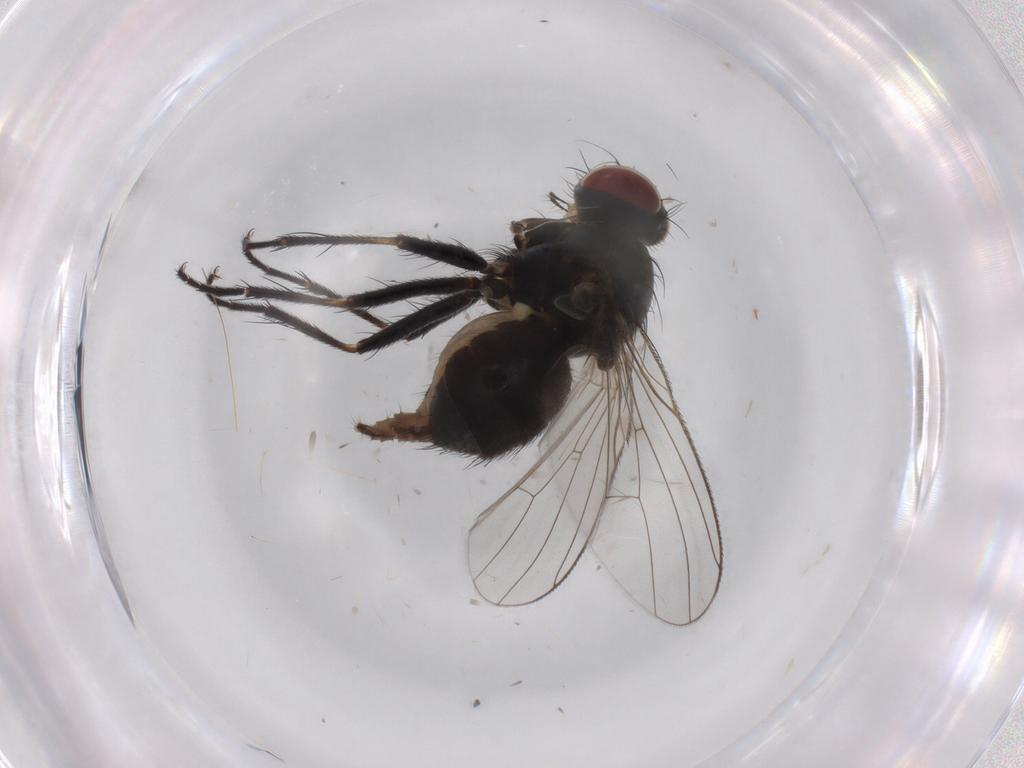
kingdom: Animalia
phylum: Arthropoda
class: Insecta
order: Diptera
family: Muscidae
